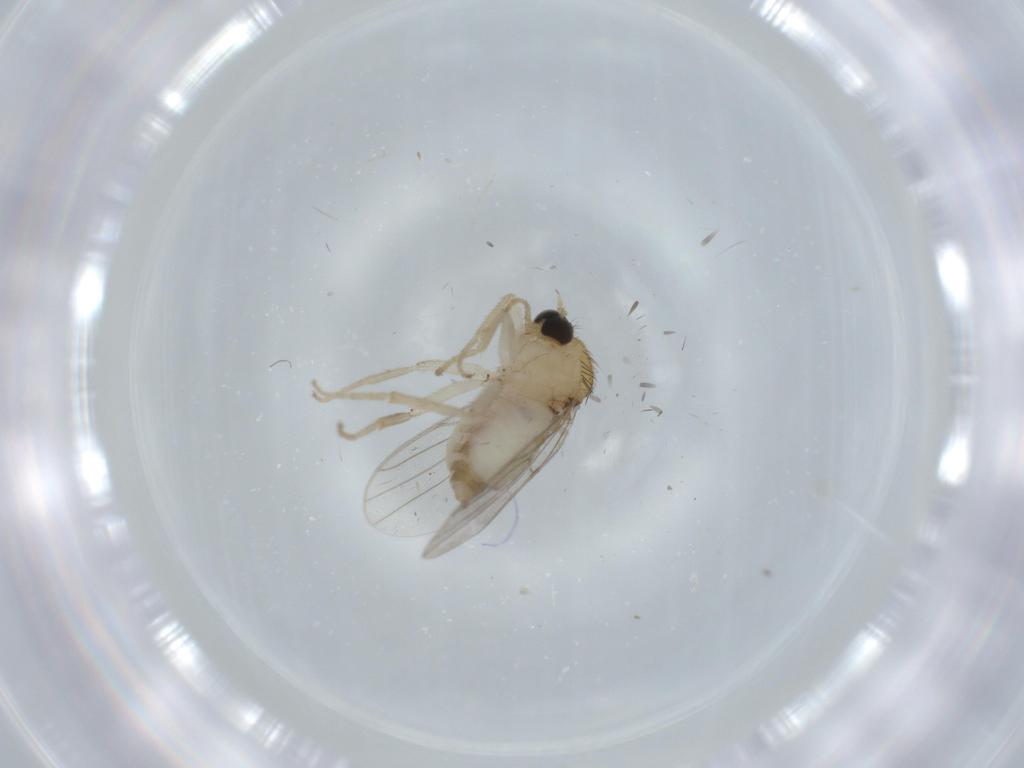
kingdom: Animalia
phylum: Arthropoda
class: Insecta
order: Diptera
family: Hybotidae
